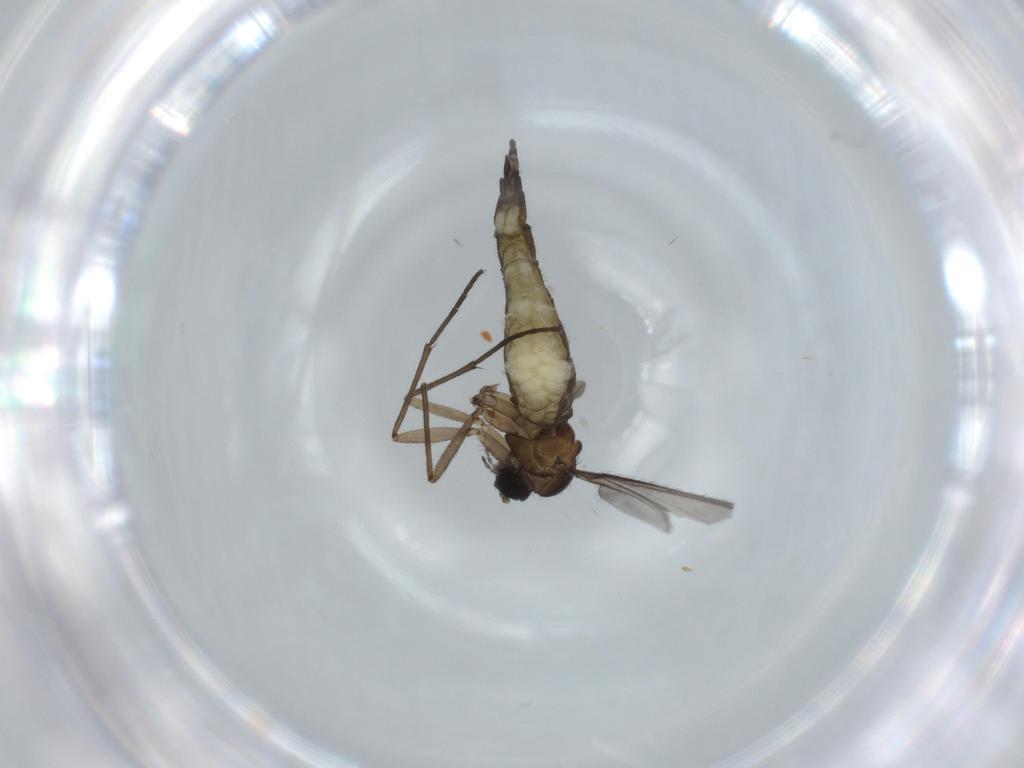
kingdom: Animalia
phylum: Arthropoda
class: Insecta
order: Diptera
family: Sciaridae
